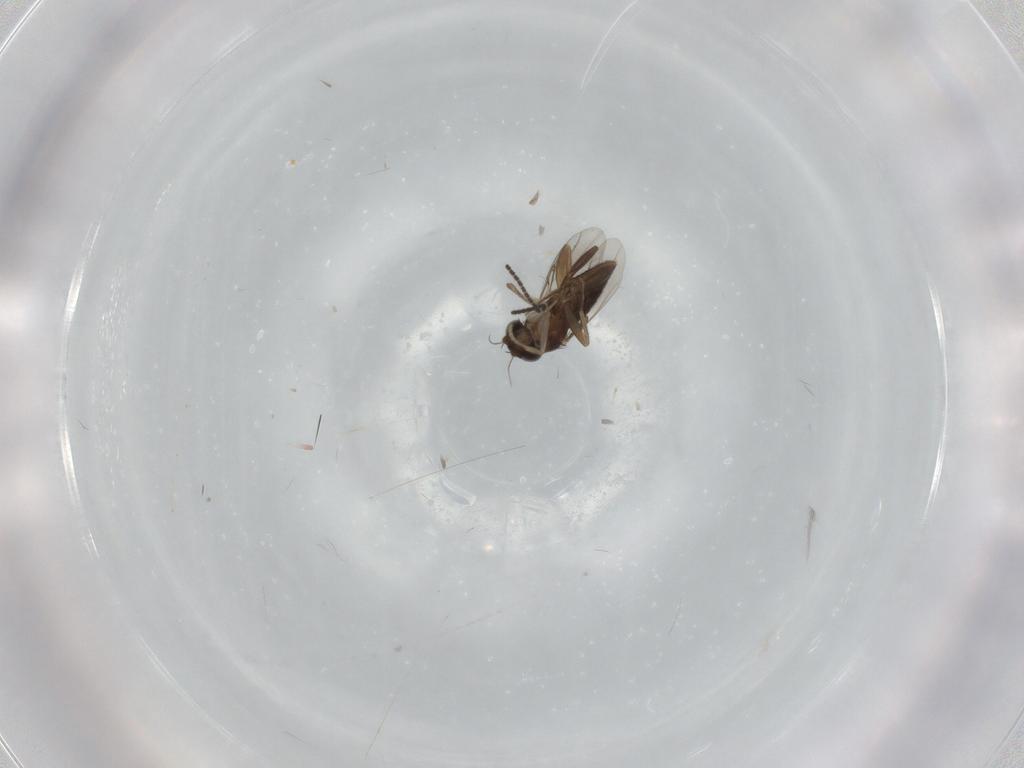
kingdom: Animalia
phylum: Arthropoda
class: Insecta
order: Diptera
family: Phoridae
